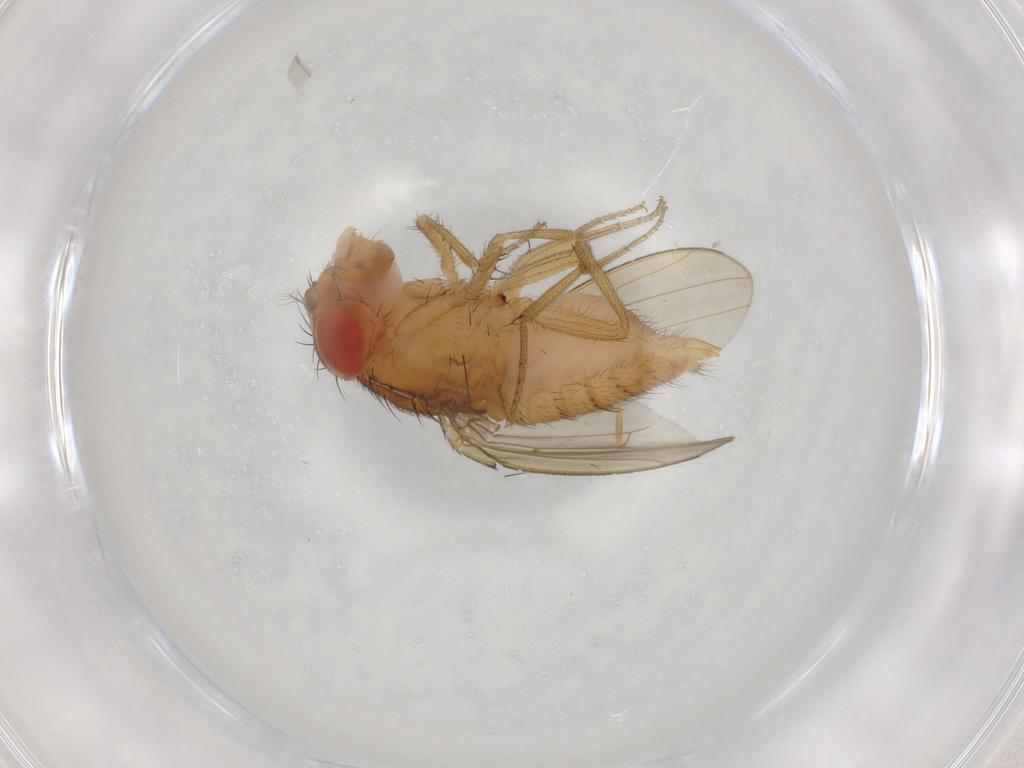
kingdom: Animalia
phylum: Arthropoda
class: Insecta
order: Diptera
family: Drosophilidae
